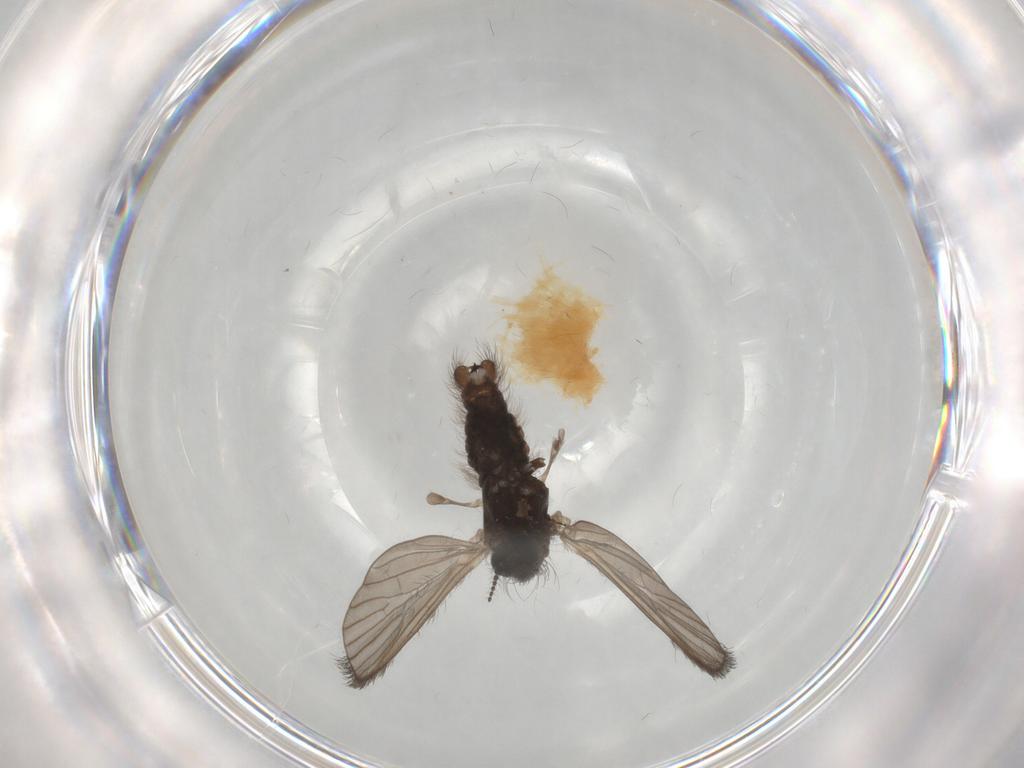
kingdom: Animalia
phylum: Arthropoda
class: Insecta
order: Diptera
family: Limoniidae
